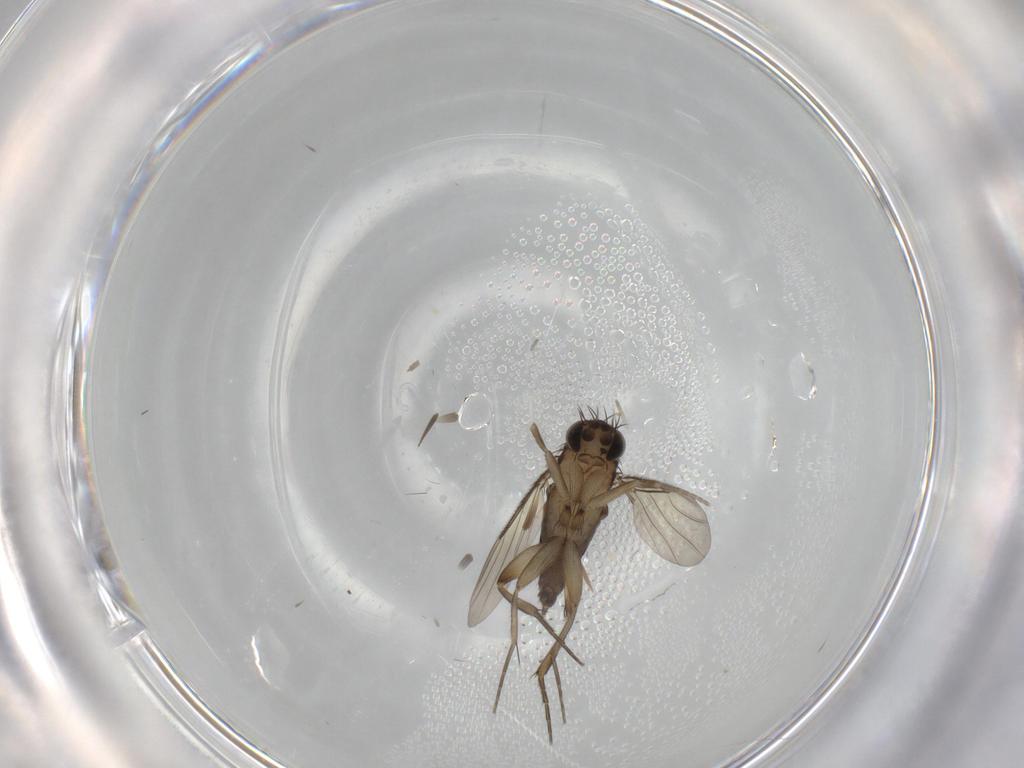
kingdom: Animalia
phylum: Arthropoda
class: Insecta
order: Diptera
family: Phoridae
